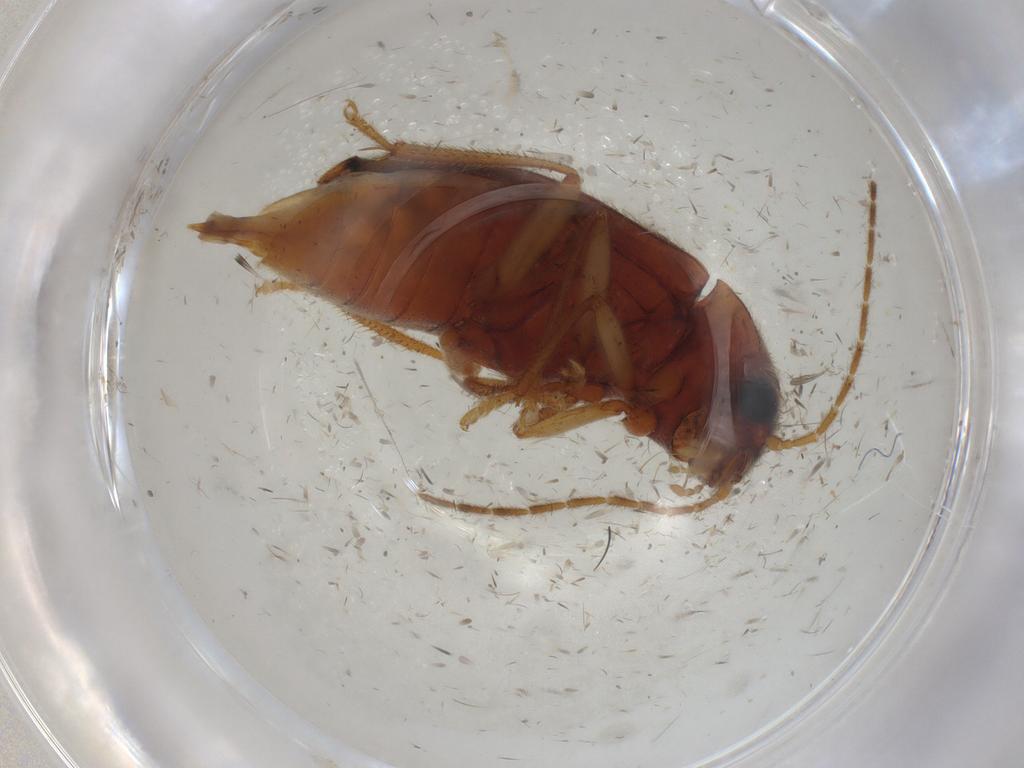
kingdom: Animalia
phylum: Arthropoda
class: Insecta
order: Coleoptera
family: Ptilodactylidae
